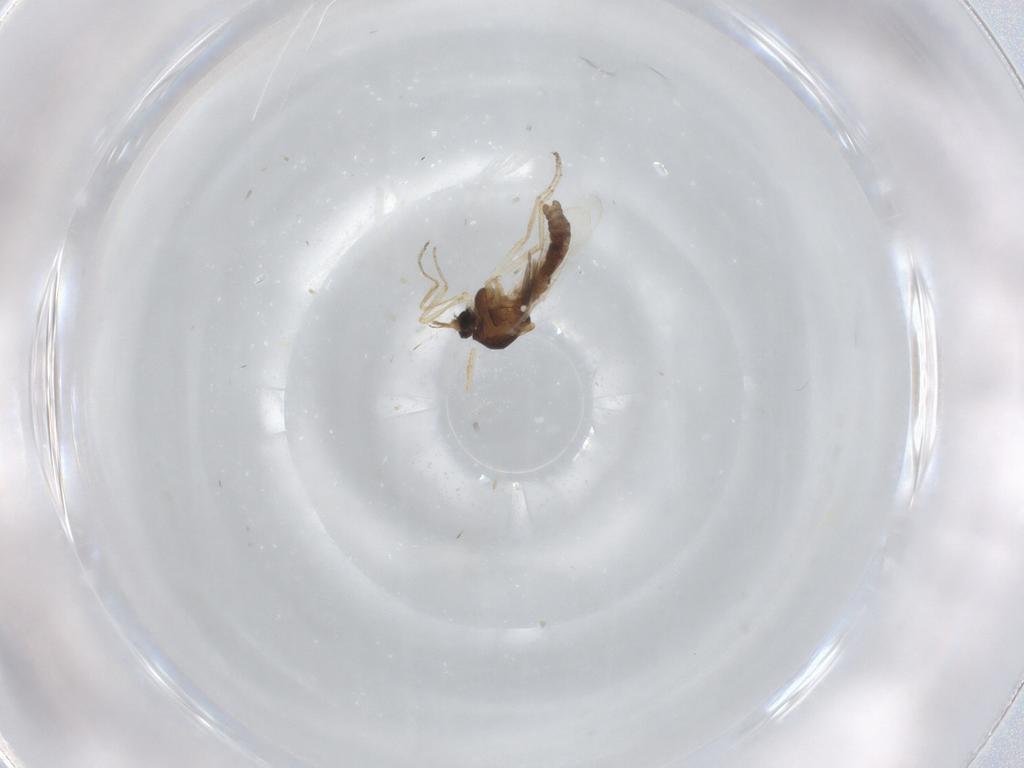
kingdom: Animalia
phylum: Arthropoda
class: Insecta
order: Diptera
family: Ceratopogonidae
